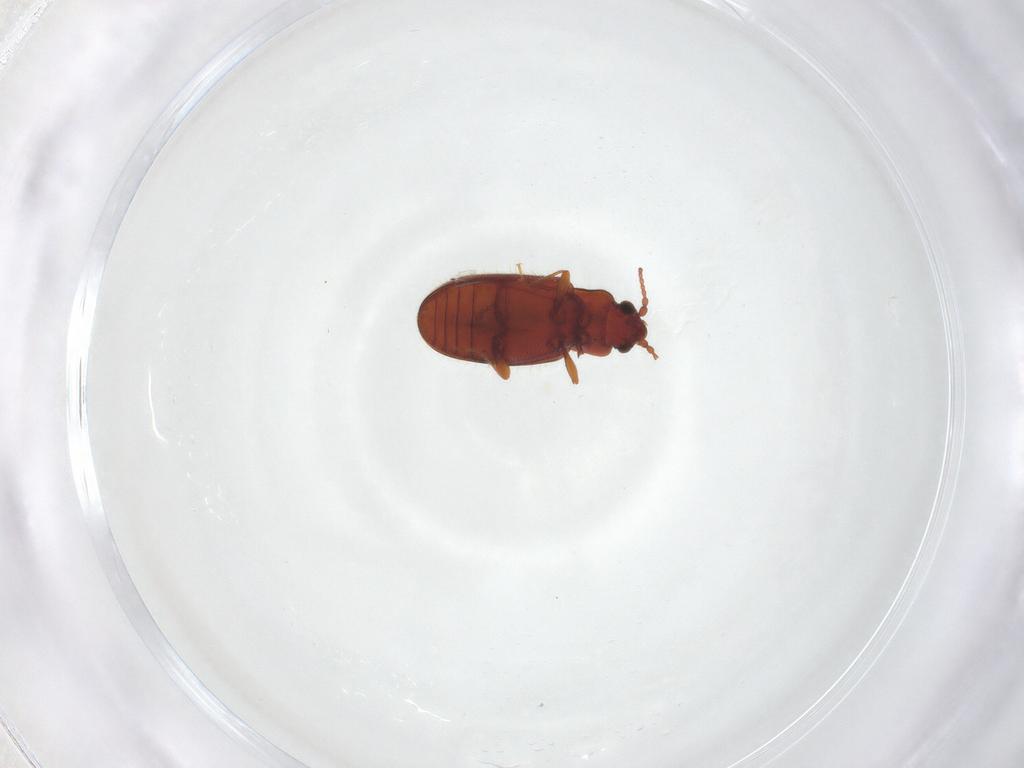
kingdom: Animalia
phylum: Arthropoda
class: Insecta
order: Coleoptera
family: Cryptophagidae
